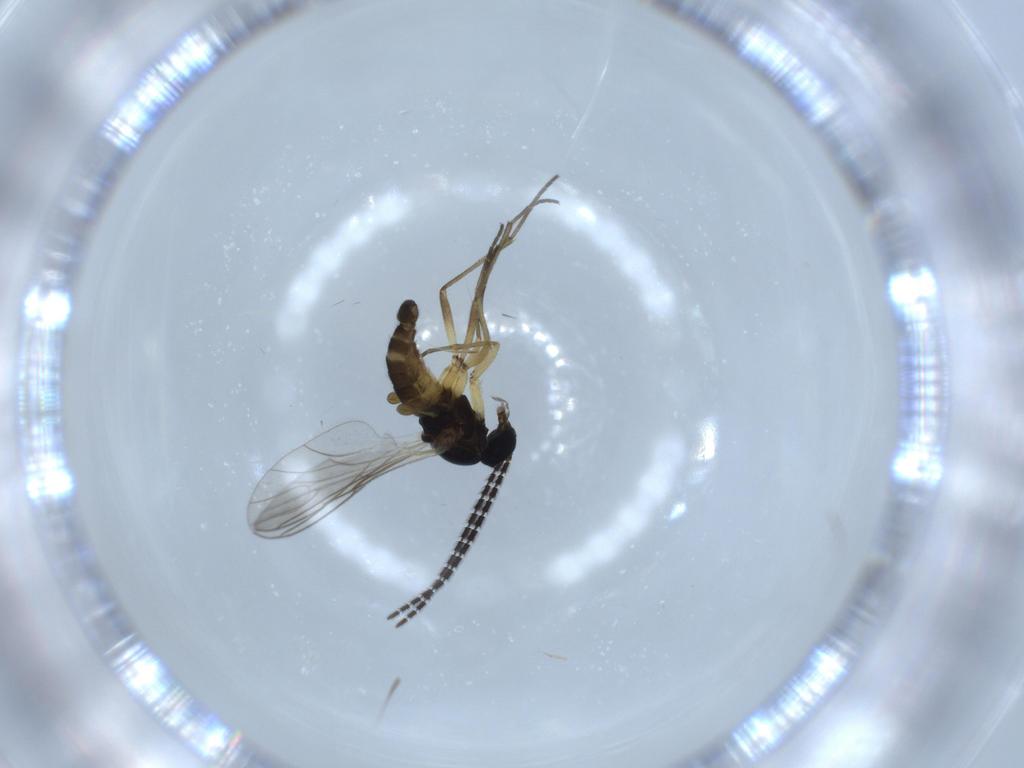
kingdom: Animalia
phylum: Arthropoda
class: Insecta
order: Diptera
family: Sciaridae
